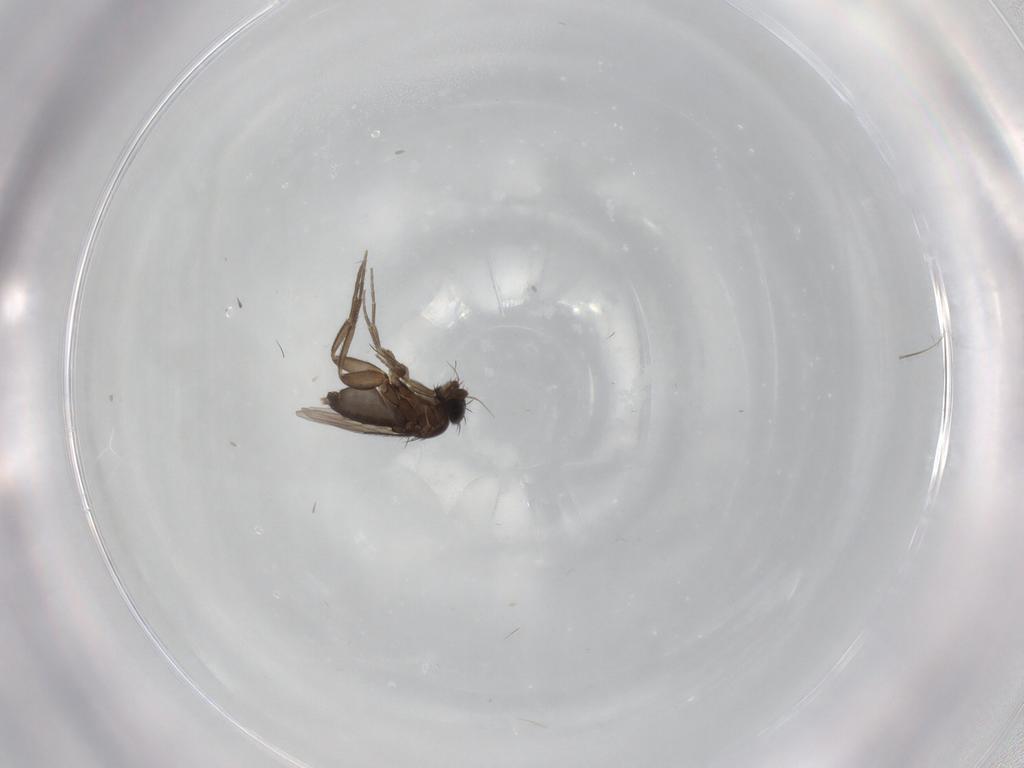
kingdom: Animalia
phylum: Arthropoda
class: Insecta
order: Diptera
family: Phoridae
